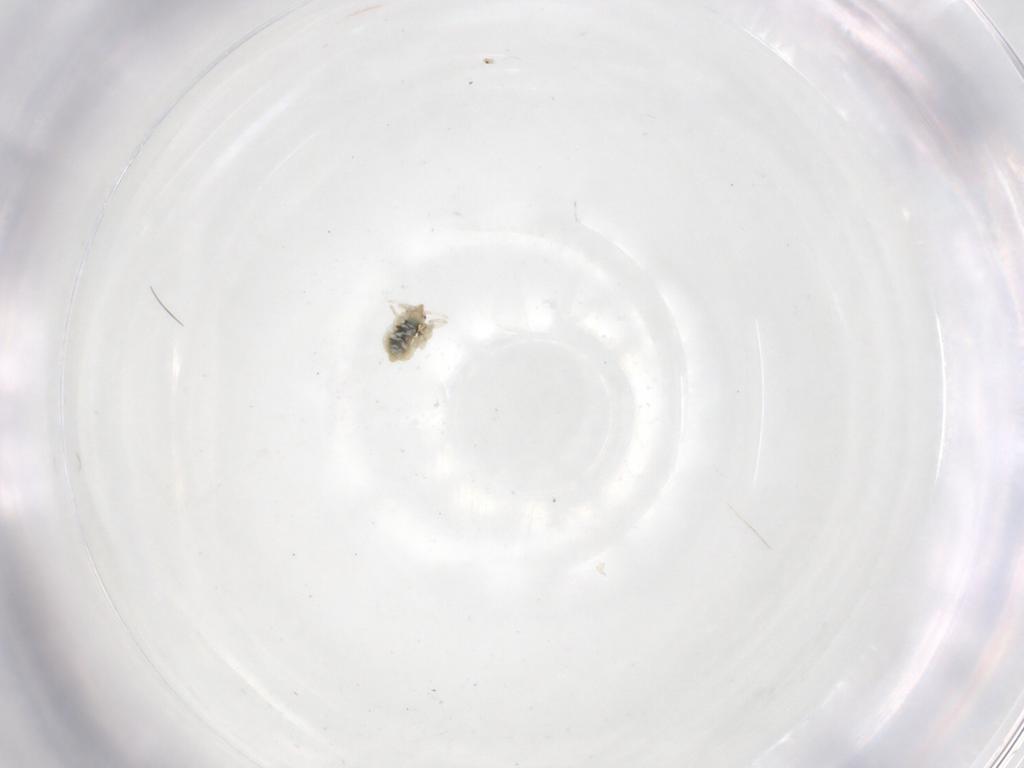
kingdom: Animalia
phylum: Arthropoda
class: Insecta
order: Neuroptera
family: Coniopterygidae
